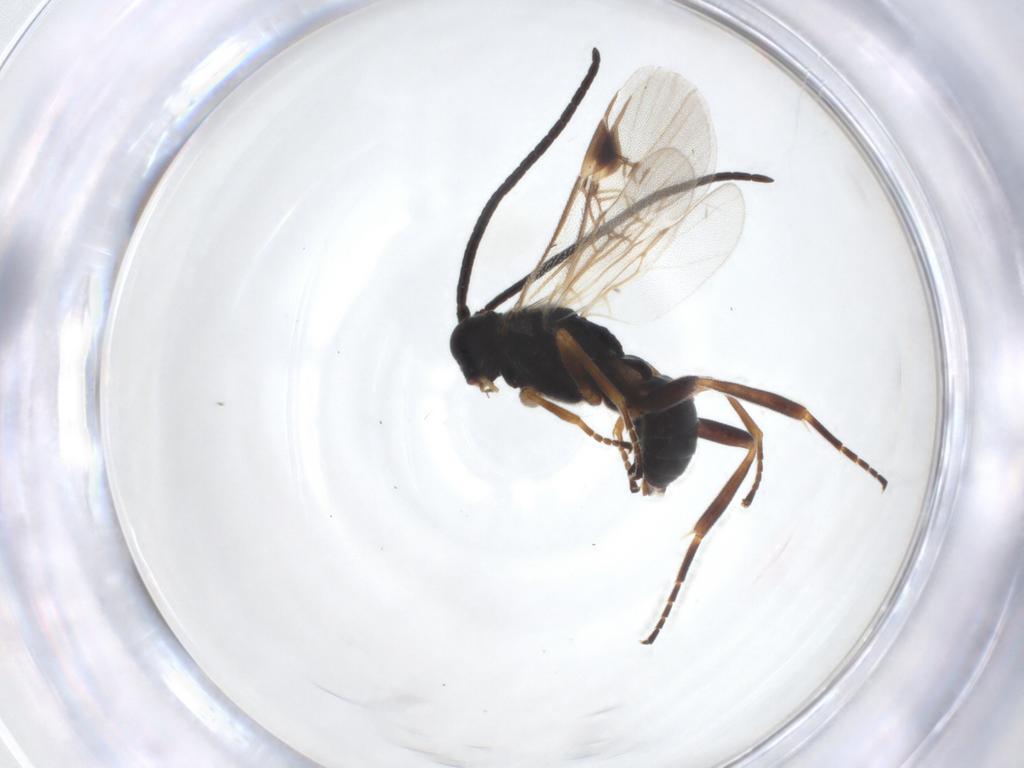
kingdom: Animalia
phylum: Arthropoda
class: Insecta
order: Hymenoptera
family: Braconidae
